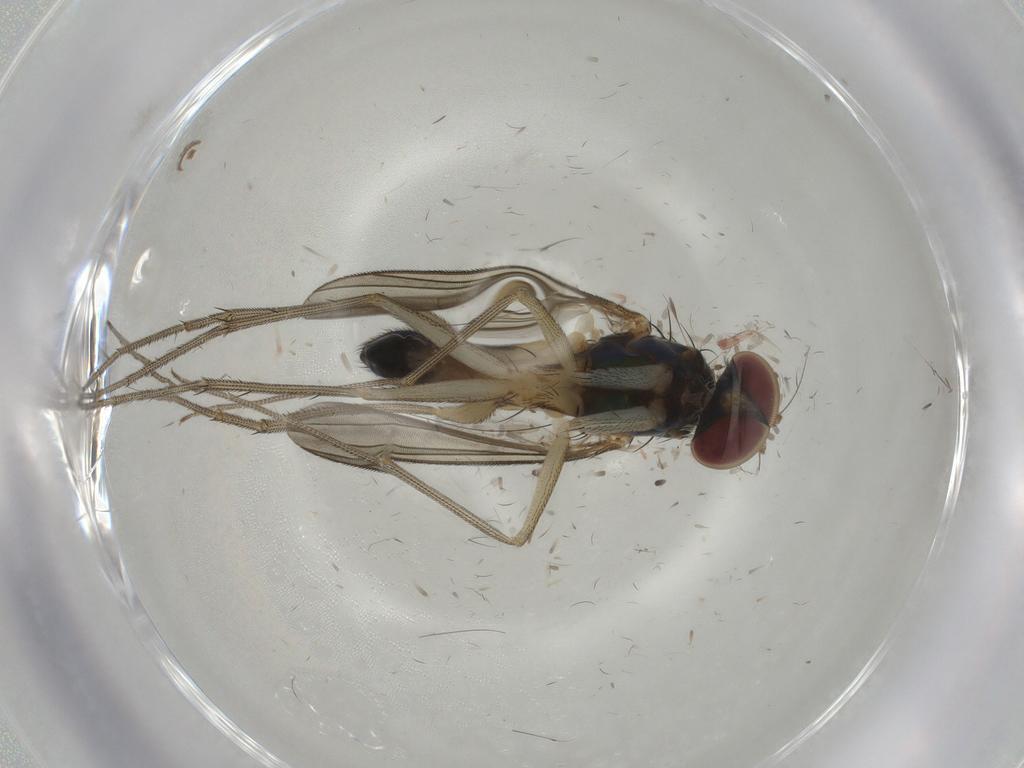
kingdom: Animalia
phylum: Arthropoda
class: Insecta
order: Diptera
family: Dolichopodidae
